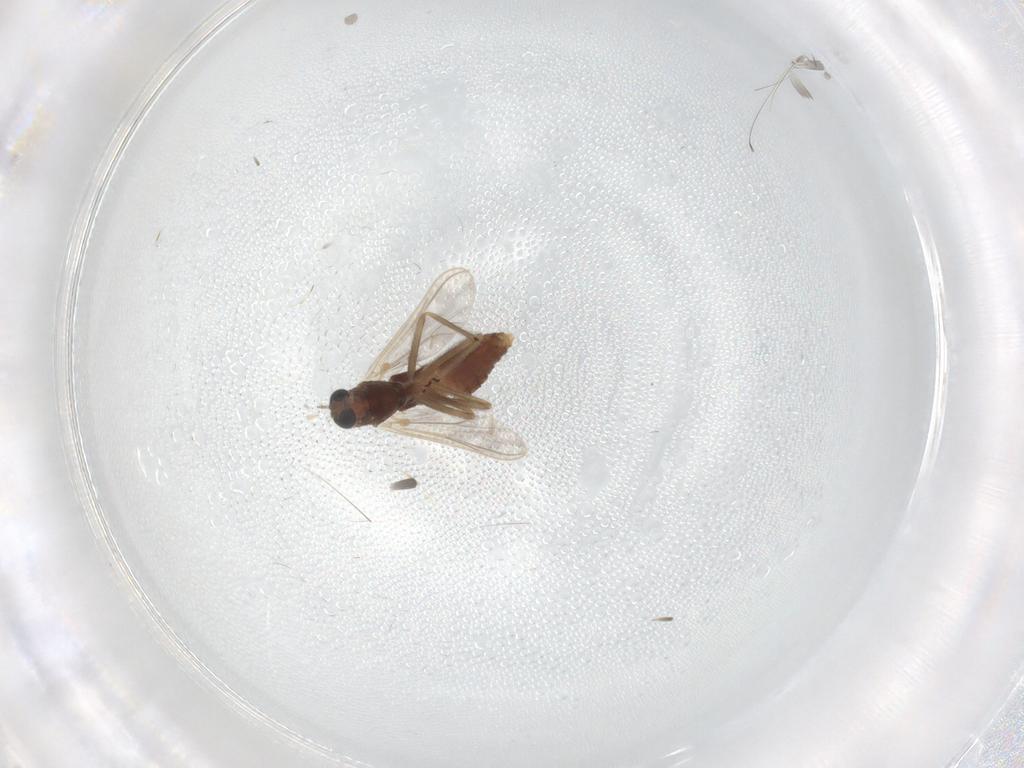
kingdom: Animalia
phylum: Arthropoda
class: Insecta
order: Diptera
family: Chironomidae
